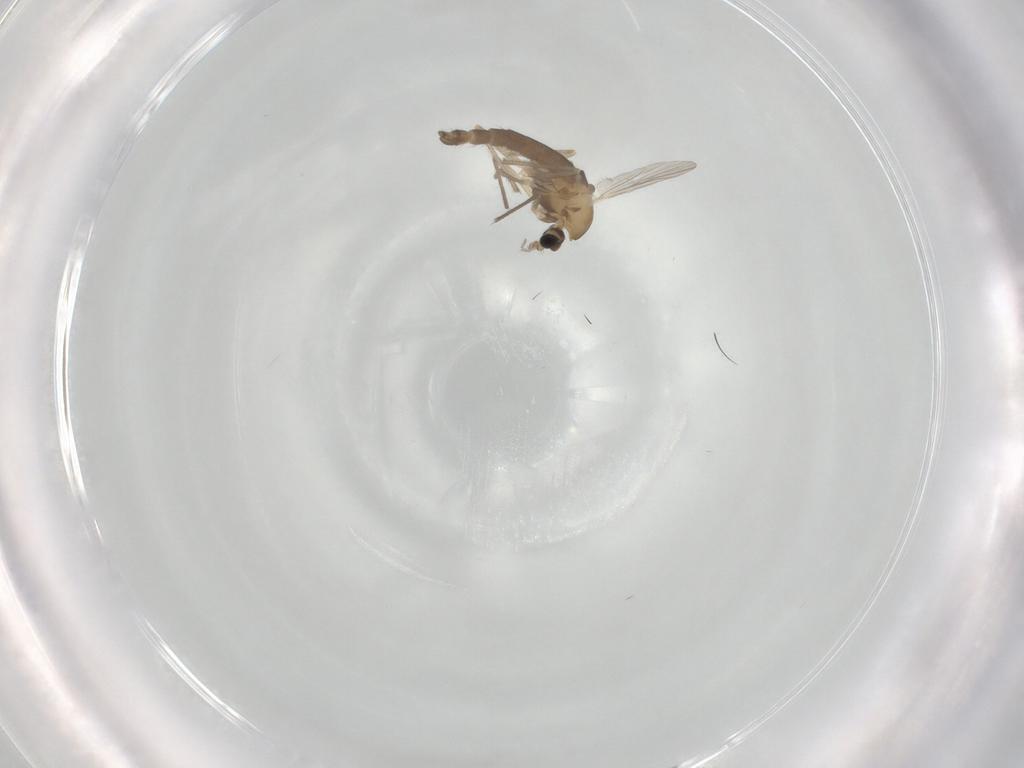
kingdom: Animalia
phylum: Arthropoda
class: Insecta
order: Diptera
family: Chironomidae
